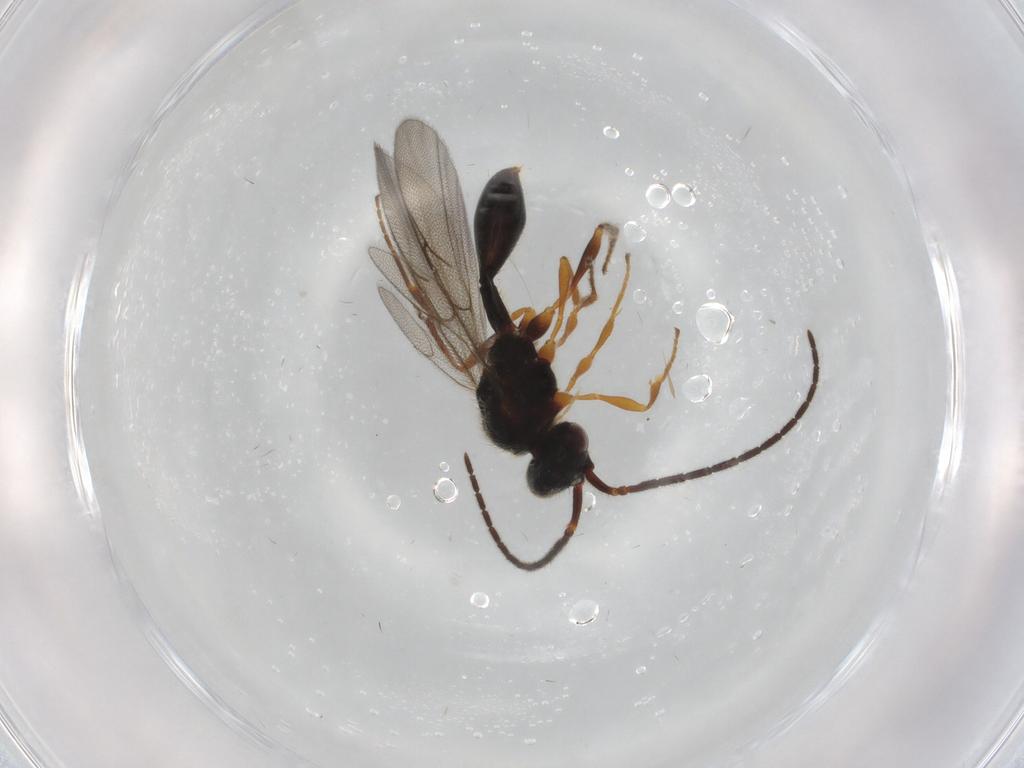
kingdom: Animalia
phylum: Arthropoda
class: Insecta
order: Hymenoptera
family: Diapriidae
